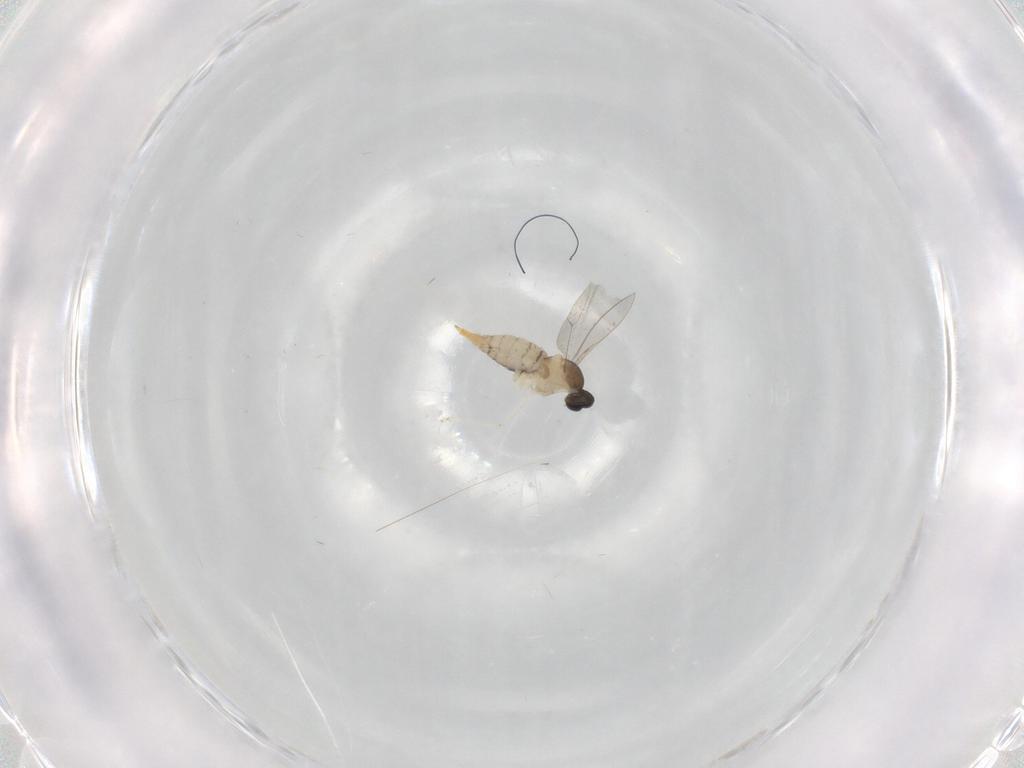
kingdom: Animalia
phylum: Arthropoda
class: Insecta
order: Diptera
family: Cecidomyiidae
